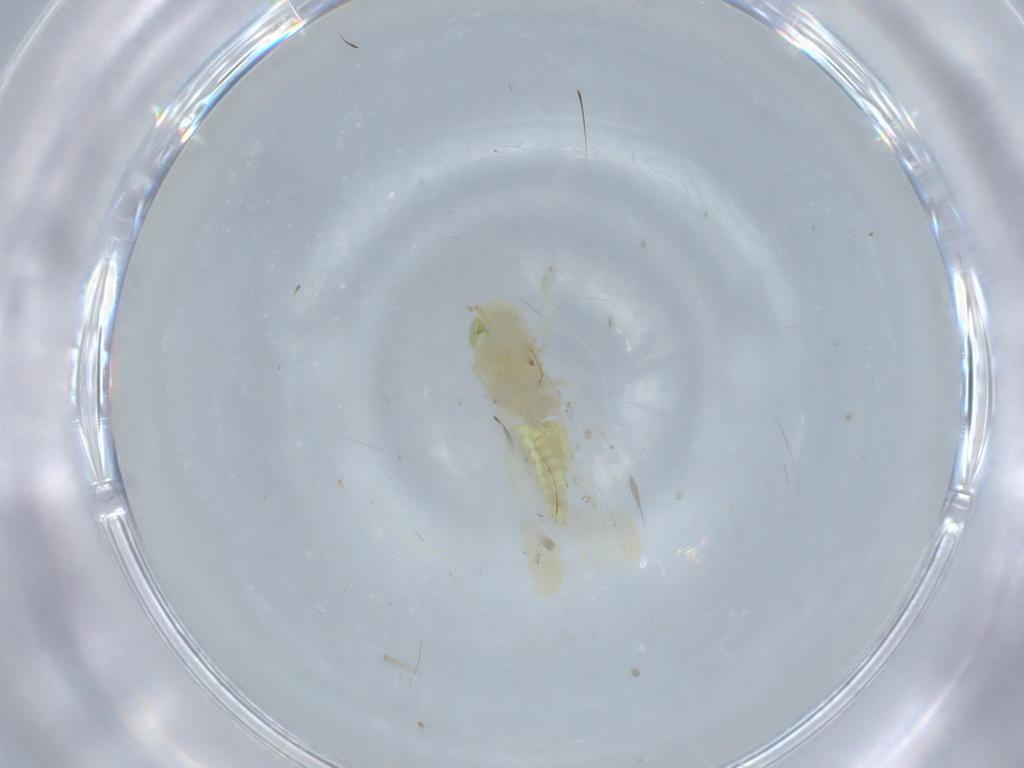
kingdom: Animalia
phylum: Arthropoda
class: Insecta
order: Hemiptera
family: Cicadellidae
